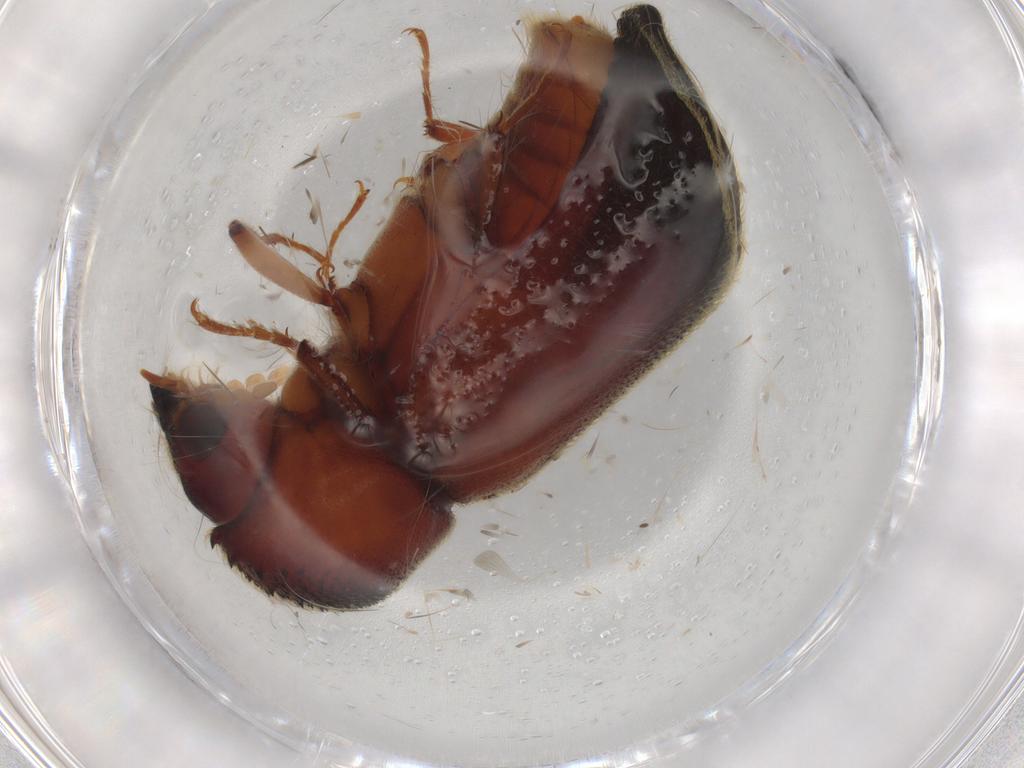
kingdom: Animalia
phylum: Arthropoda
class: Insecta
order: Coleoptera
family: Bostrichidae
